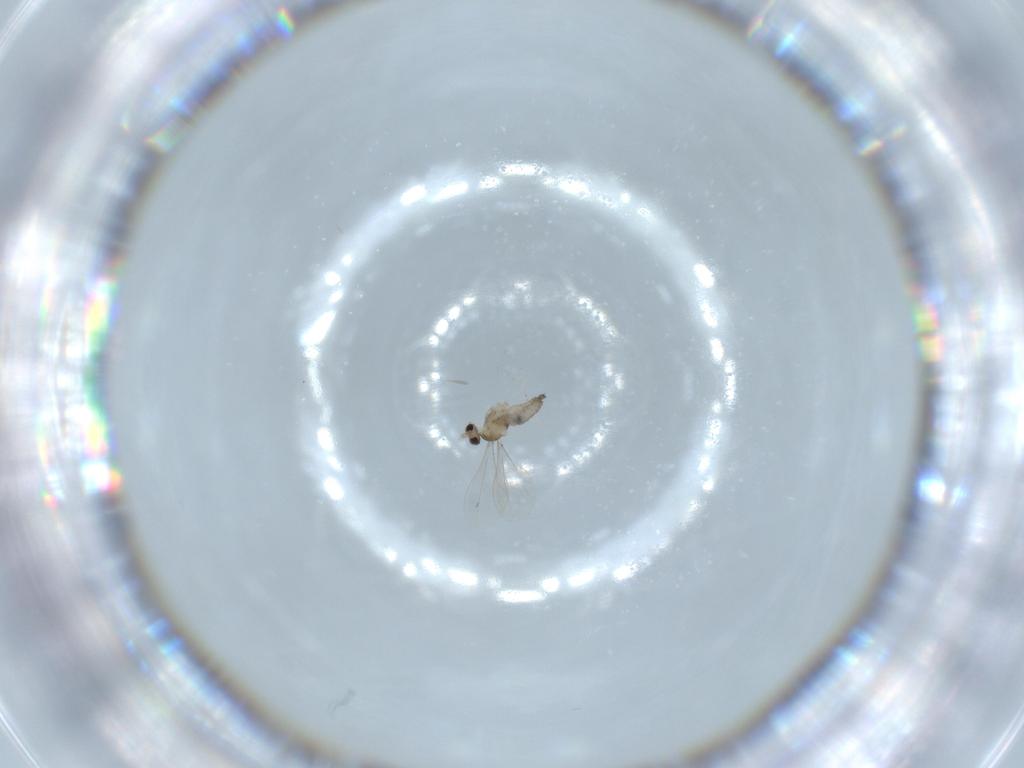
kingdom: Animalia
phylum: Arthropoda
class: Insecta
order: Diptera
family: Cecidomyiidae
